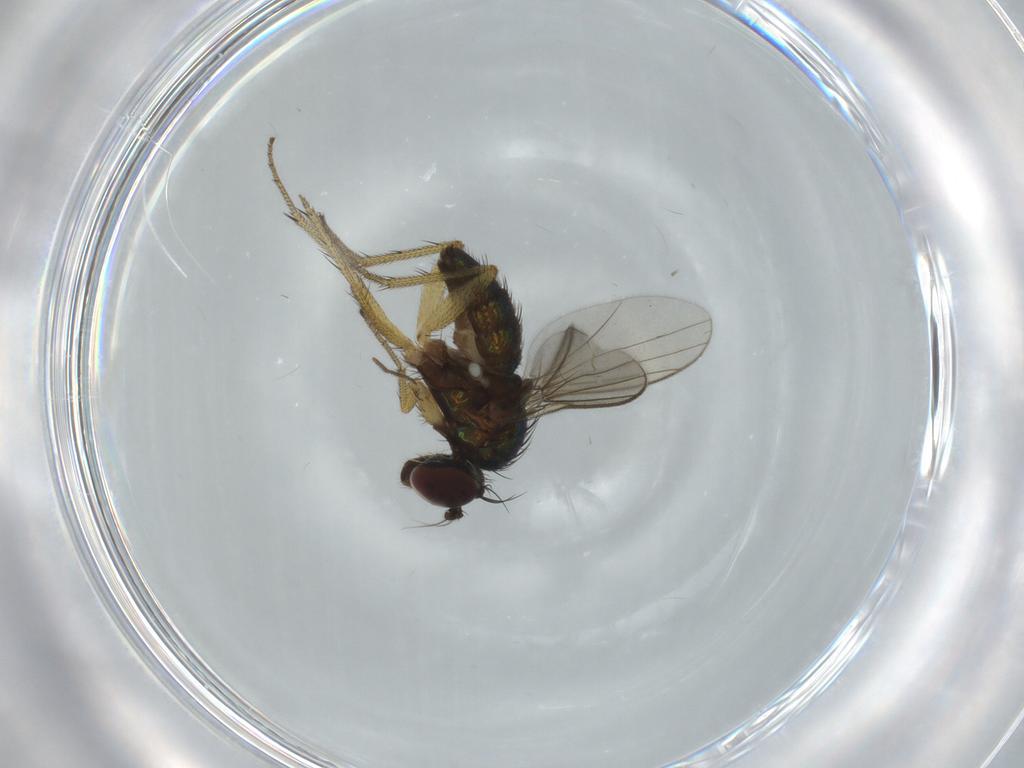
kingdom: Animalia
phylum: Arthropoda
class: Insecta
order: Diptera
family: Dolichopodidae
